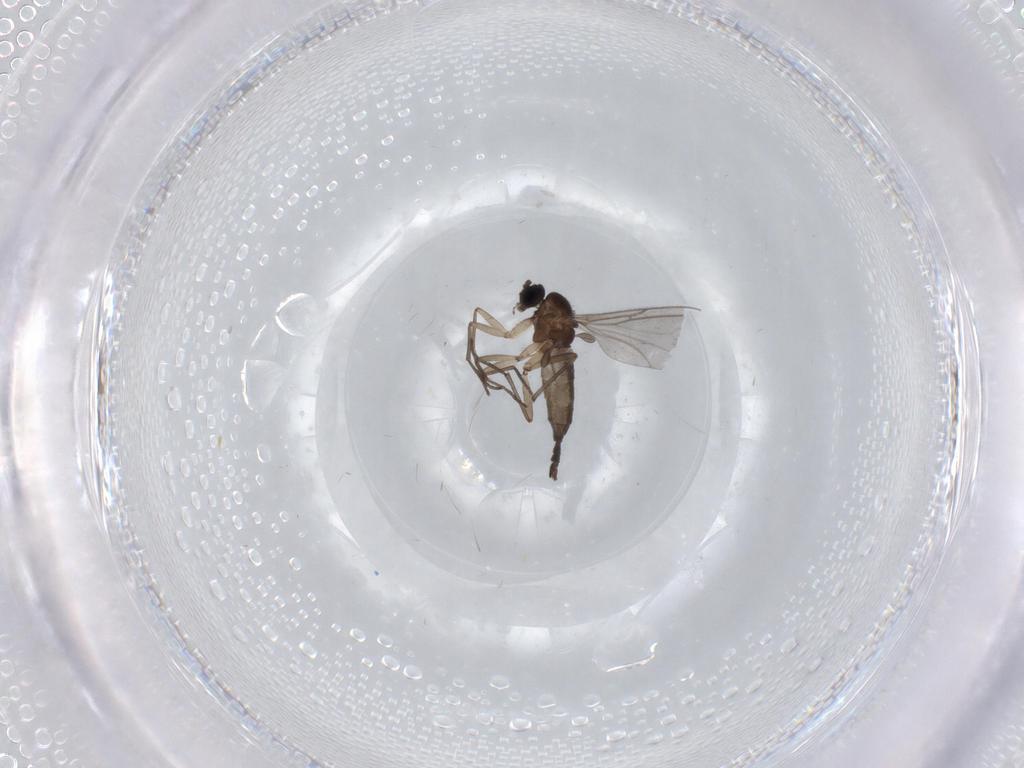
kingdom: Animalia
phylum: Arthropoda
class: Insecta
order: Diptera
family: Sciaridae
